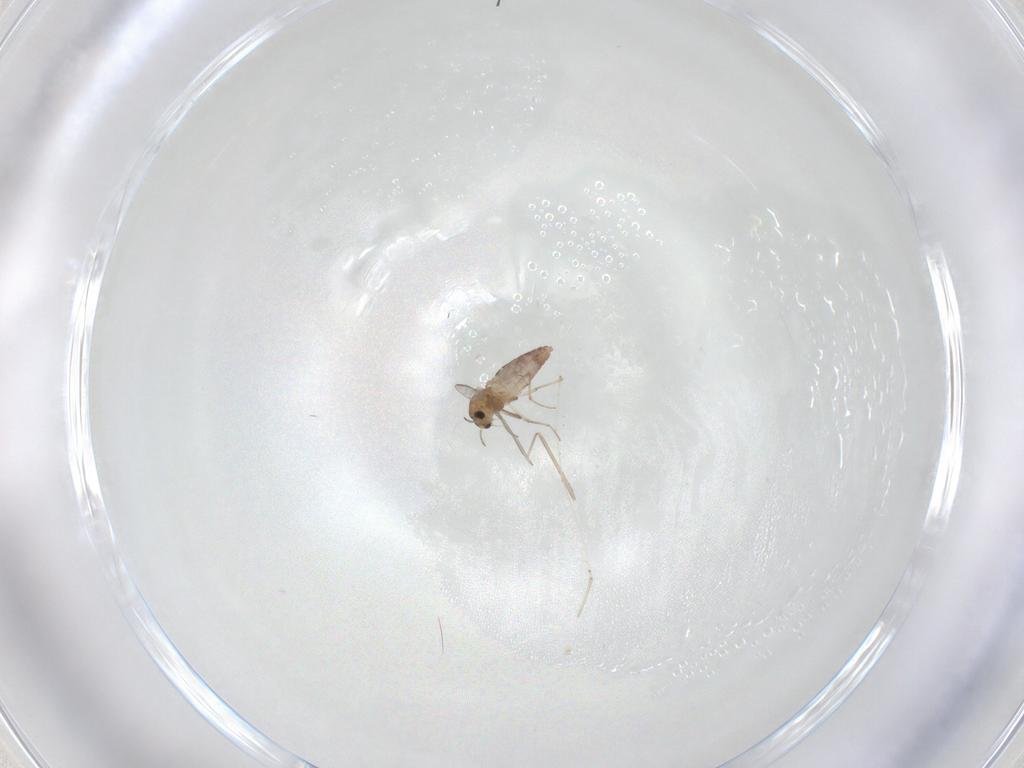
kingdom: Animalia
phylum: Arthropoda
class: Insecta
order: Diptera
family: Chironomidae
